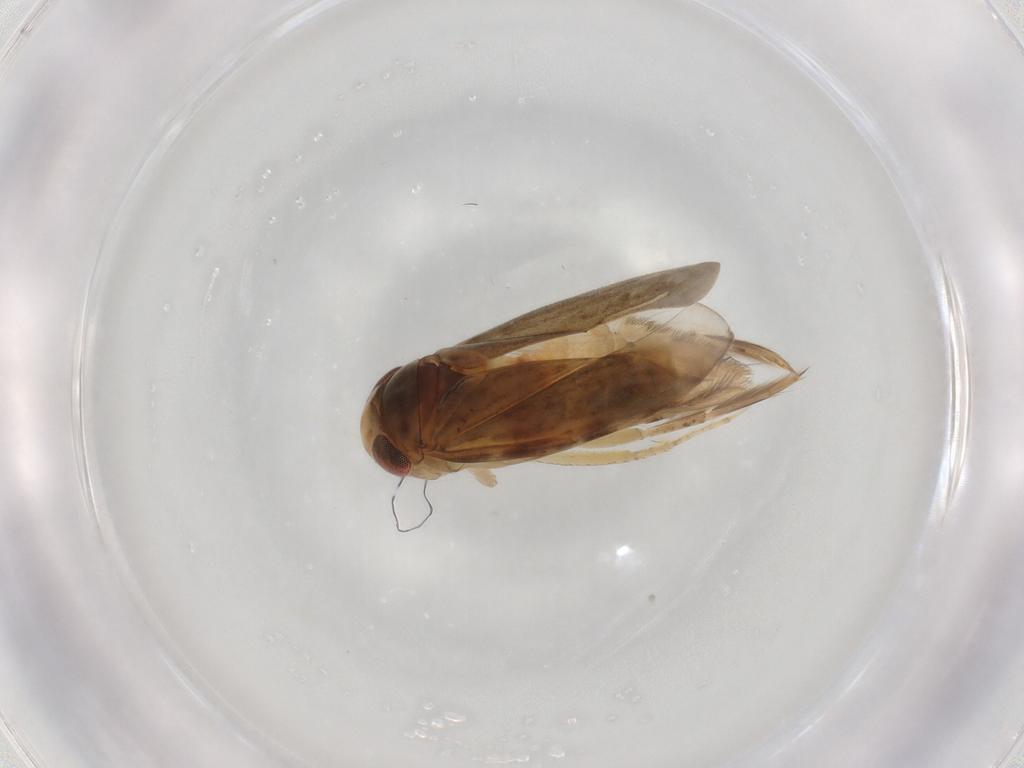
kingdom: Animalia
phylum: Arthropoda
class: Insecta
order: Hemiptera
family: Corixidae
